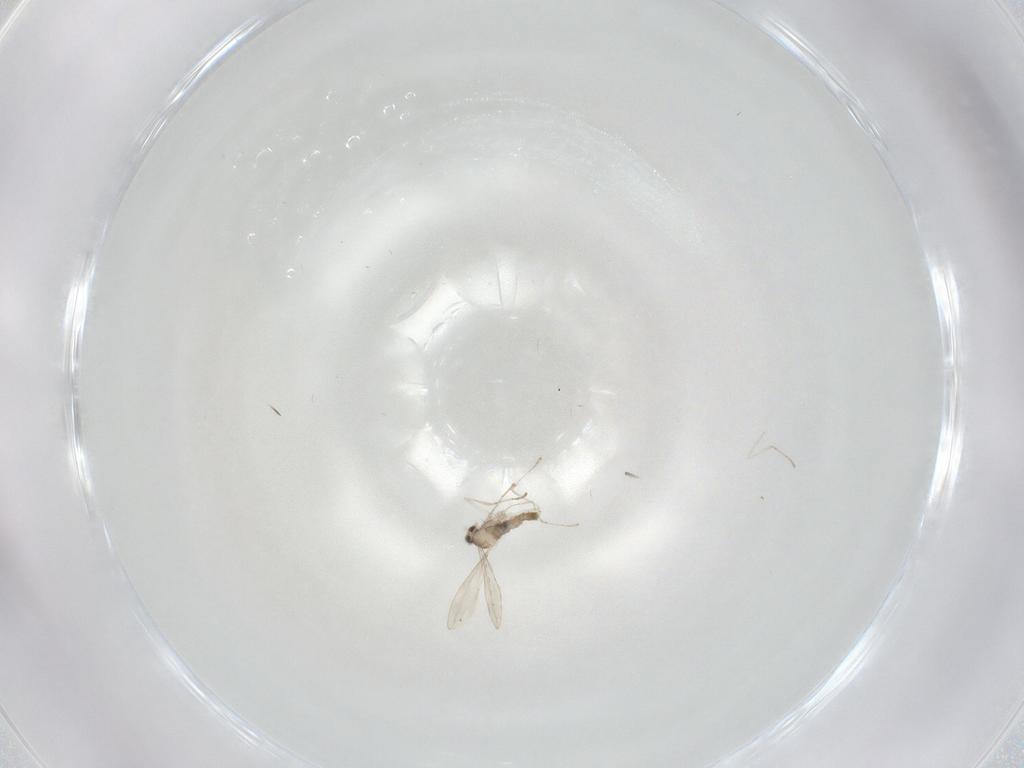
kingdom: Animalia
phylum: Arthropoda
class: Insecta
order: Diptera
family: Cecidomyiidae
